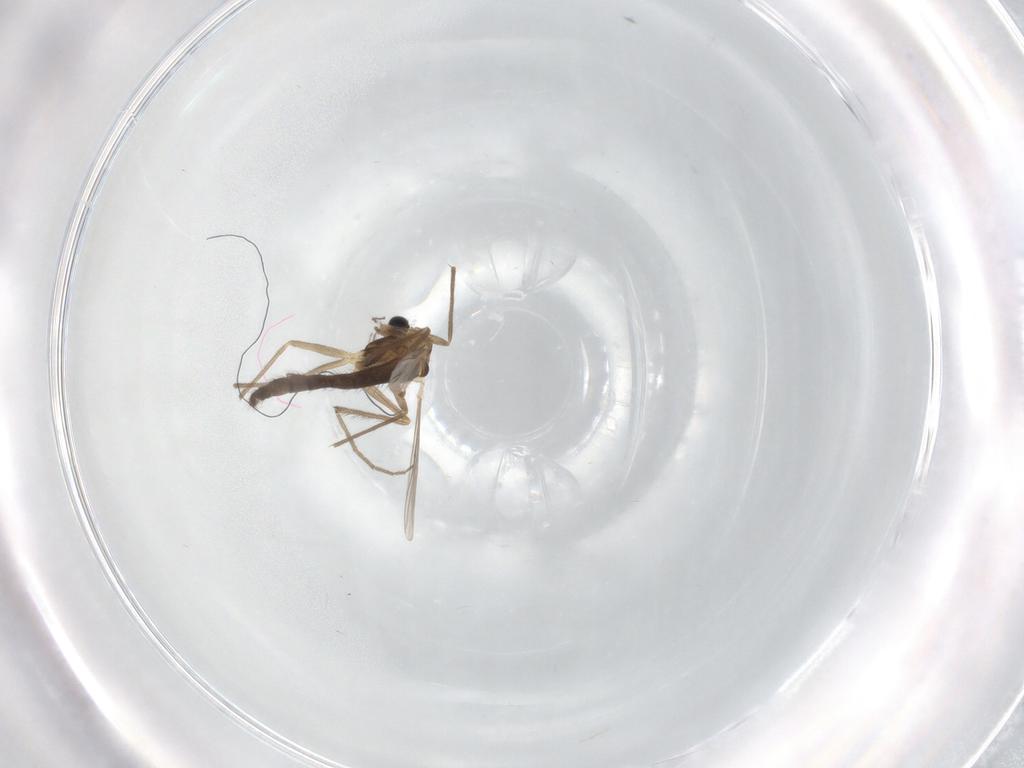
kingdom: Animalia
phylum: Arthropoda
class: Insecta
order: Diptera
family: Chironomidae
